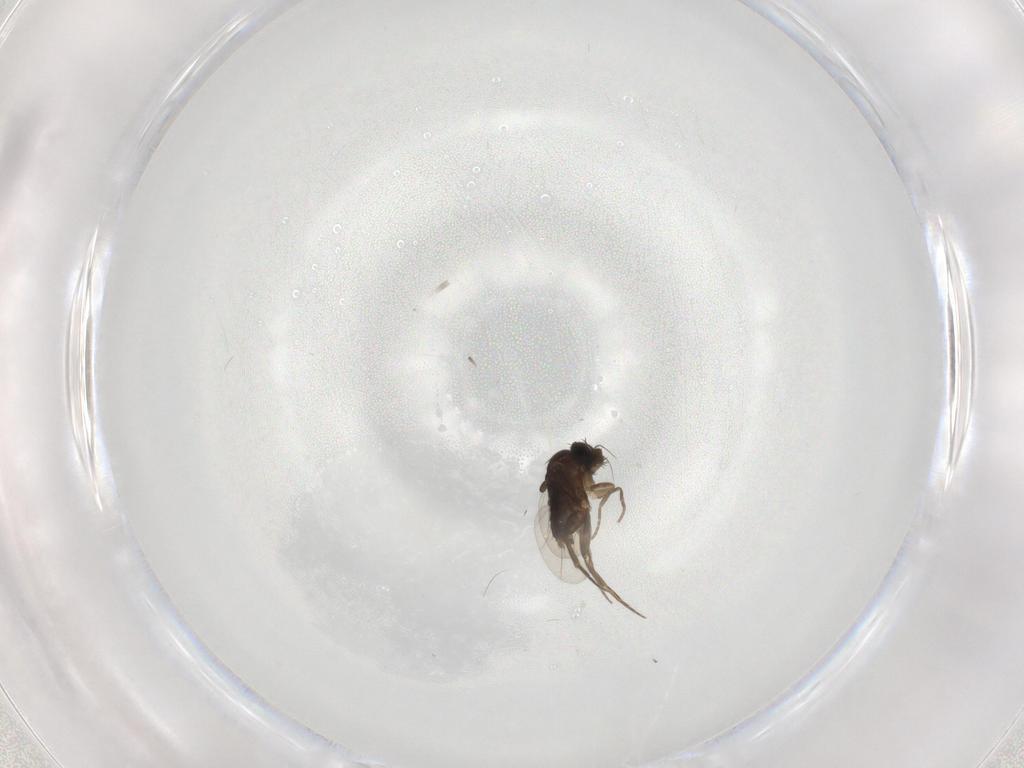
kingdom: Animalia
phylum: Arthropoda
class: Insecta
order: Diptera
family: Phoridae
